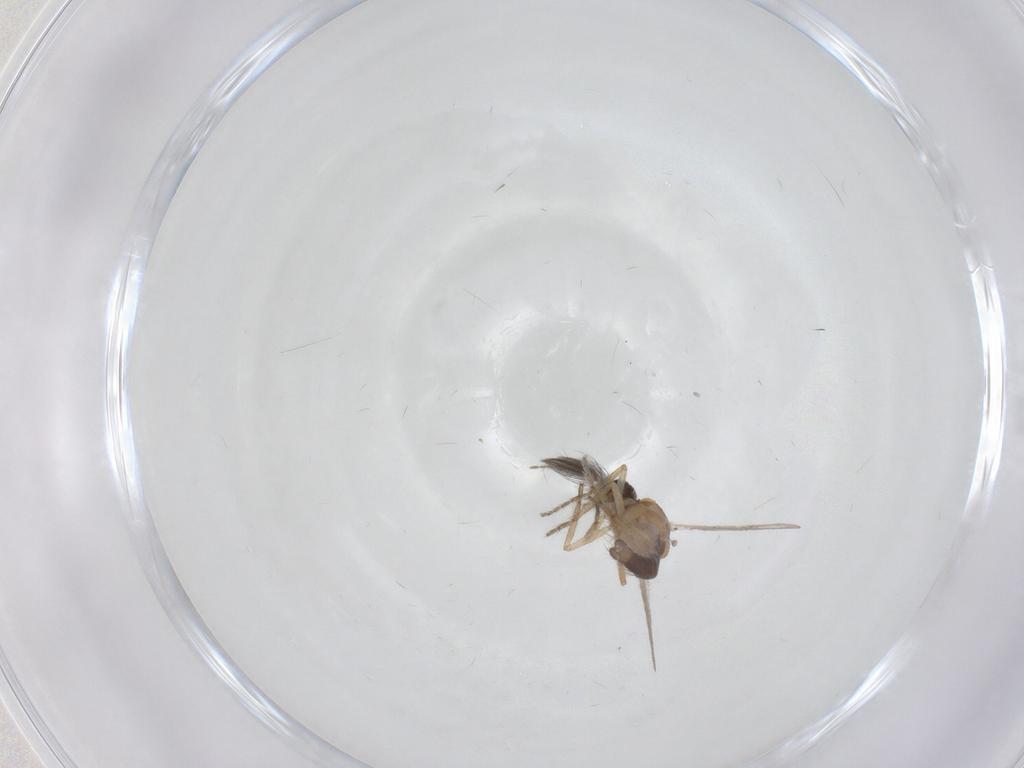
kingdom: Animalia
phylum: Arthropoda
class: Insecta
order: Diptera
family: Ceratopogonidae
